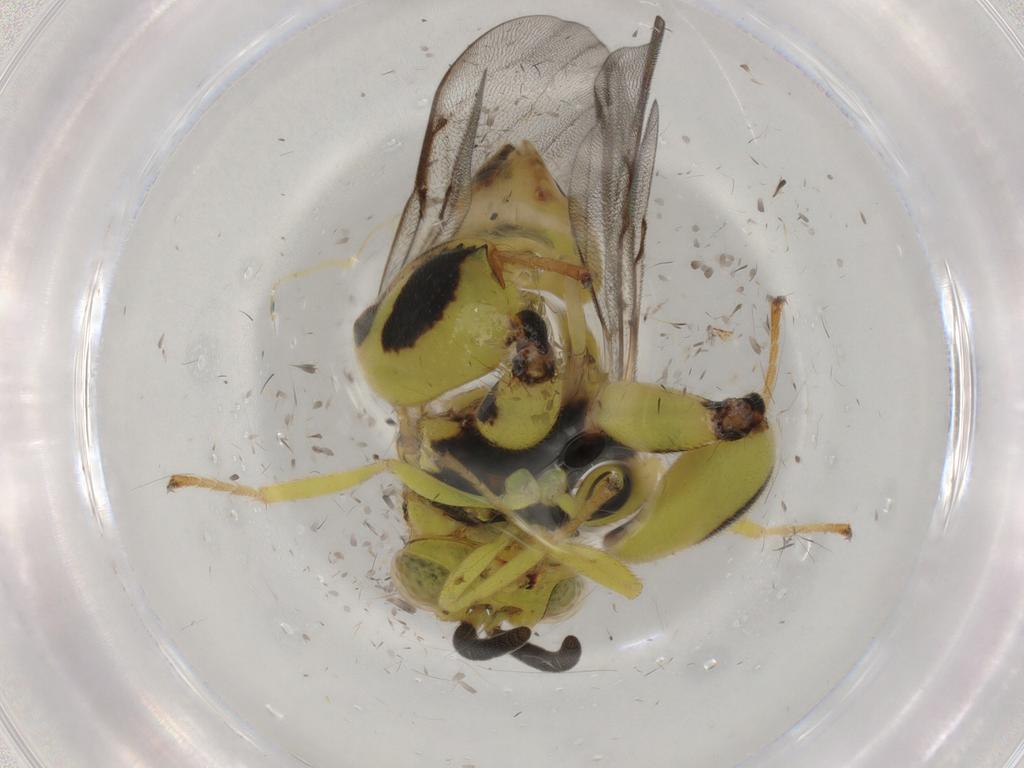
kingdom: Animalia
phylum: Arthropoda
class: Insecta
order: Hymenoptera
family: Chalcididae
